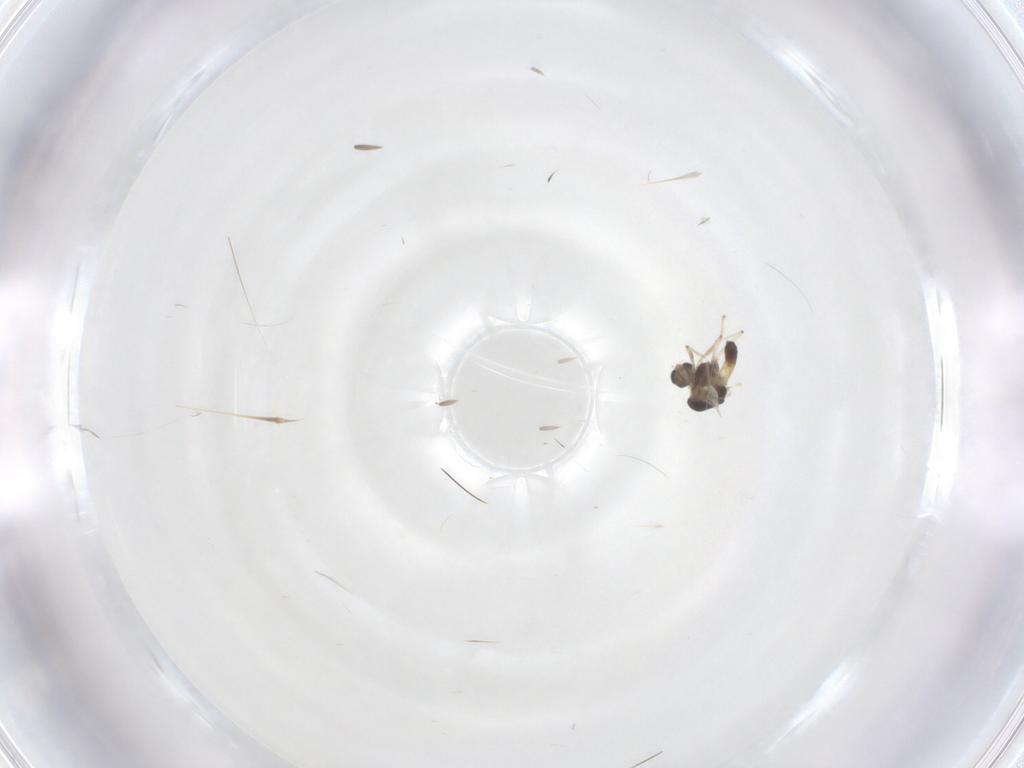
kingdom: Animalia
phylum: Arthropoda
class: Insecta
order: Diptera
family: Chironomidae
